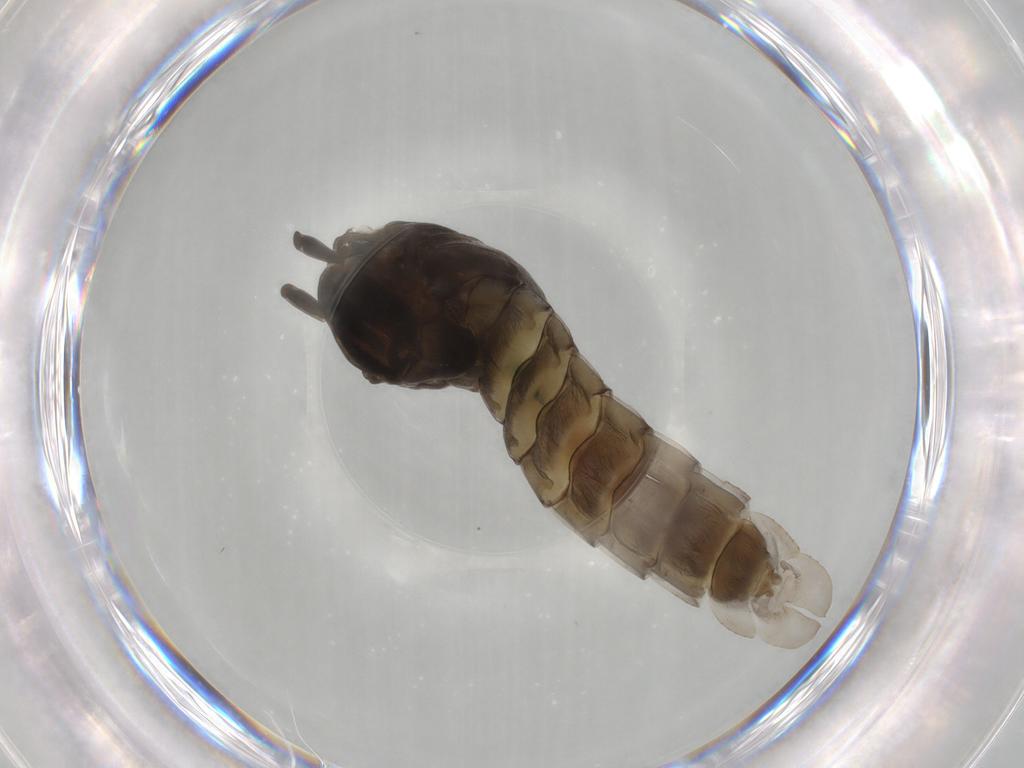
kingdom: Animalia
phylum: Arthropoda
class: Insecta
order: Diptera
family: Chironomidae
